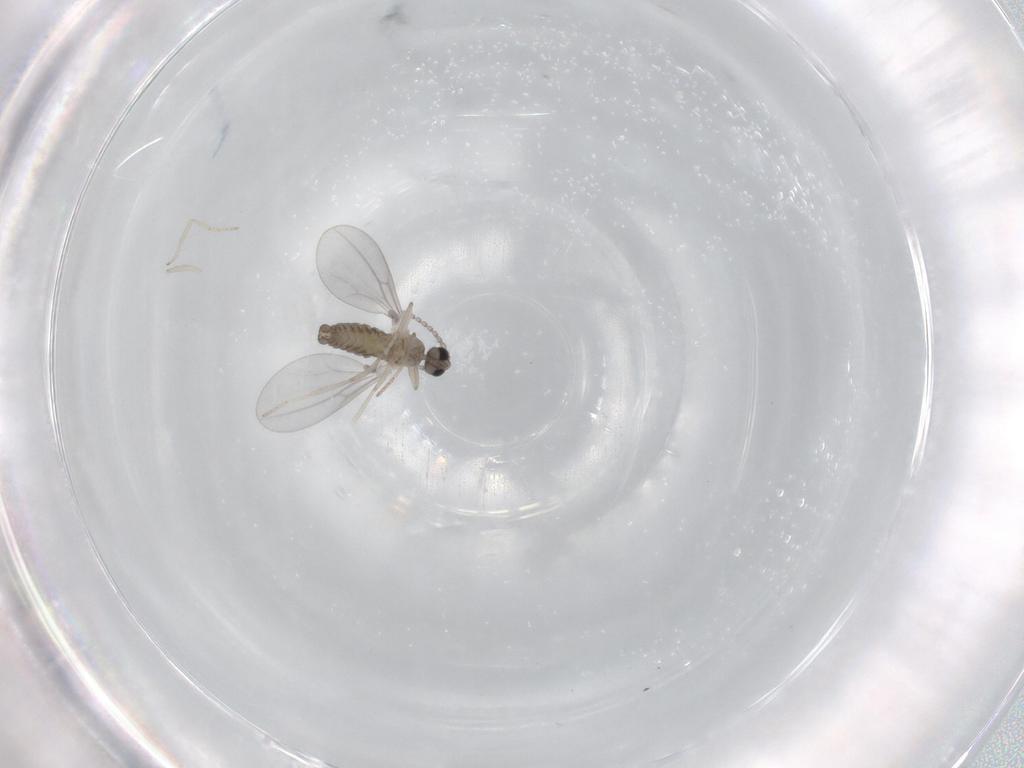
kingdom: Animalia
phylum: Arthropoda
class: Insecta
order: Diptera
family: Cecidomyiidae
